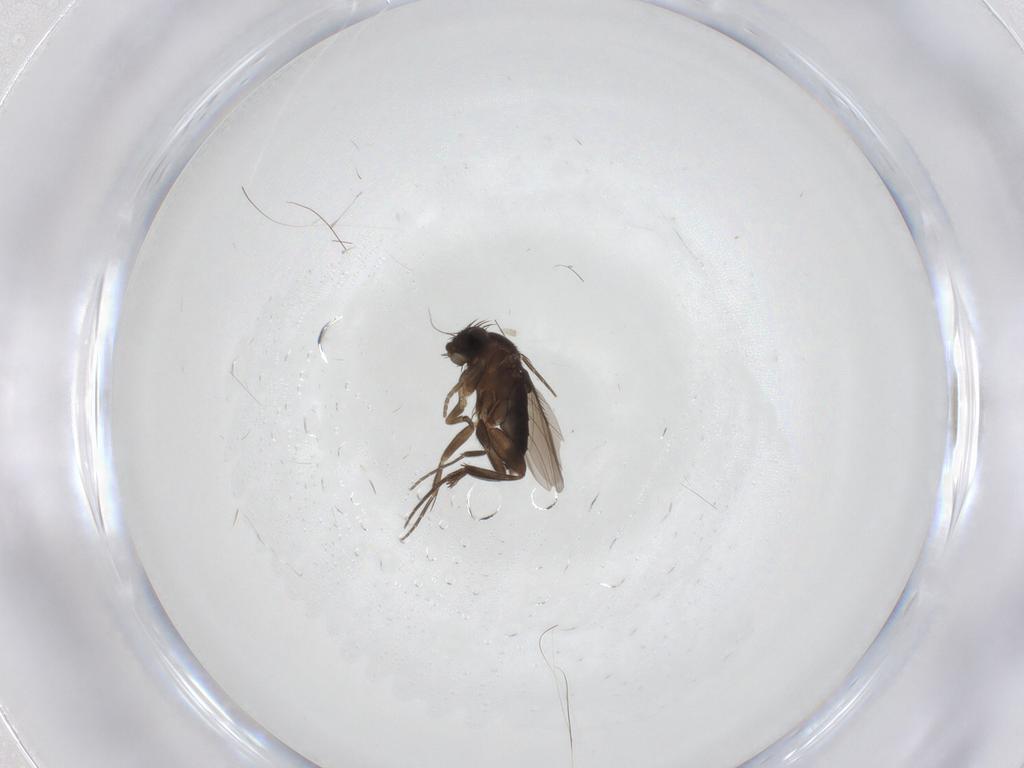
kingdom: Animalia
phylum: Arthropoda
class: Insecta
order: Diptera
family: Phoridae
